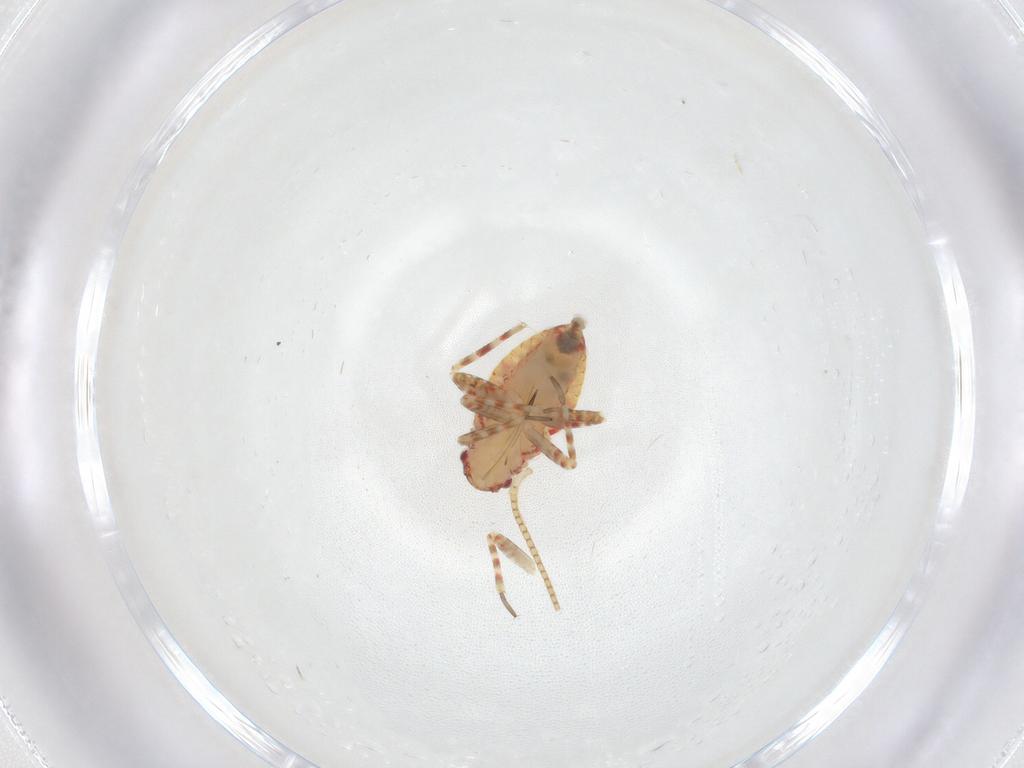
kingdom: Animalia
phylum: Arthropoda
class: Insecta
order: Hemiptera
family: Miridae
